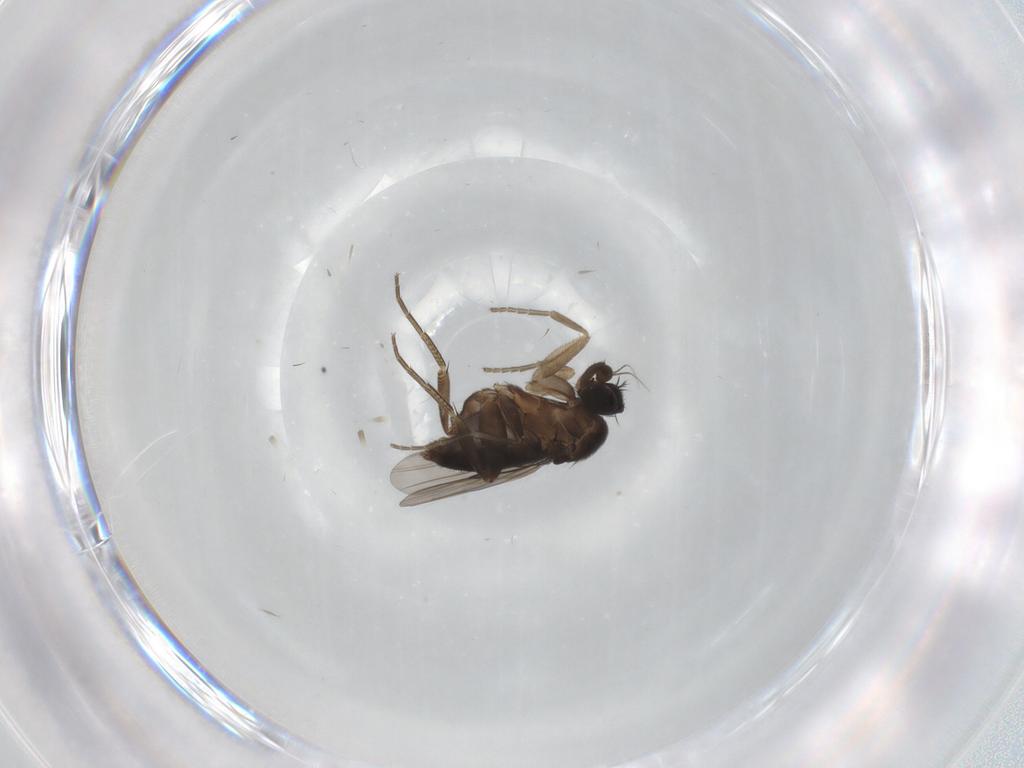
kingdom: Animalia
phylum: Arthropoda
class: Insecta
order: Diptera
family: Phoridae
